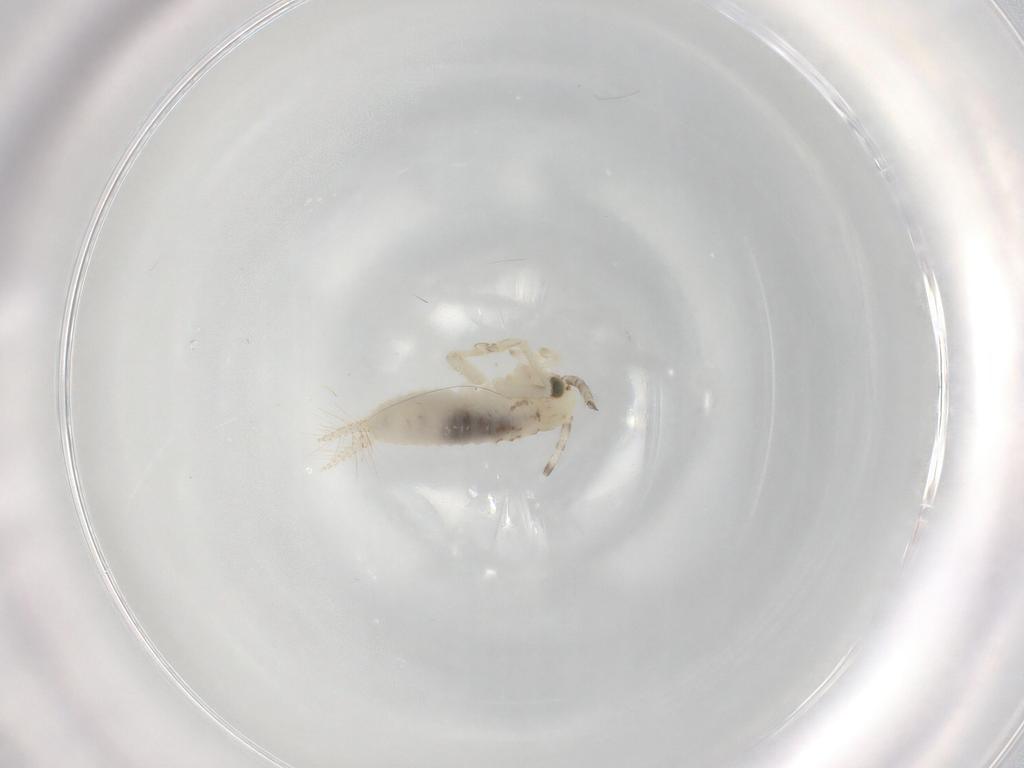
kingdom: Animalia
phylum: Arthropoda
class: Insecta
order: Orthoptera
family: Trigonidiidae
